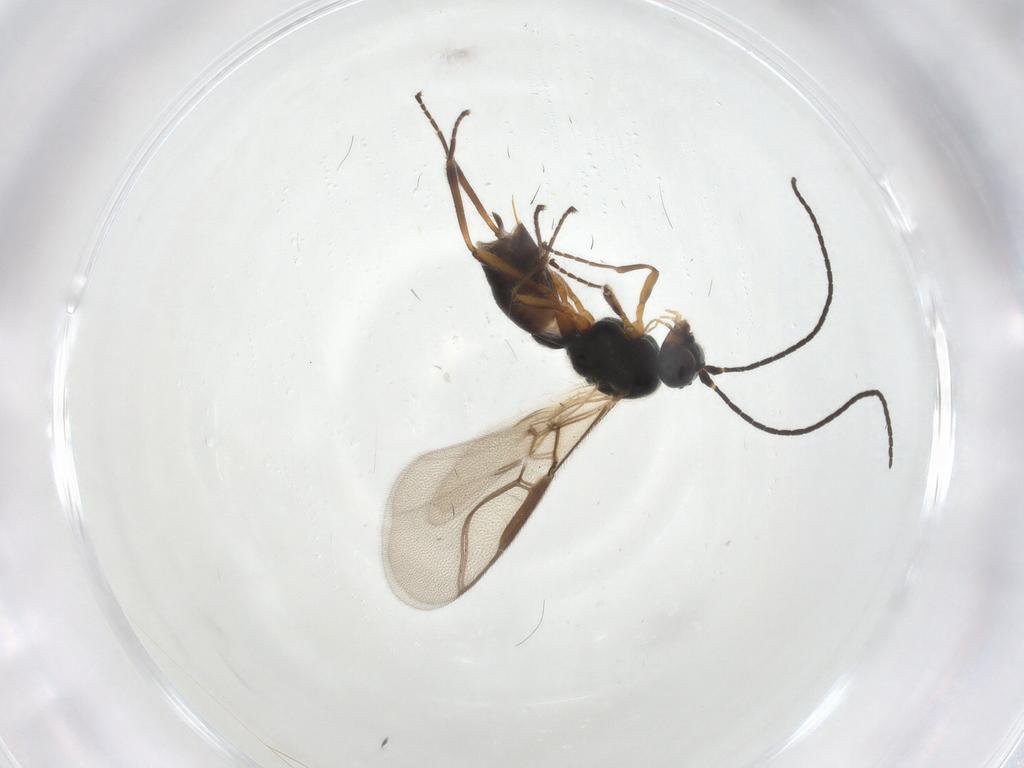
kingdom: Animalia
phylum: Arthropoda
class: Insecta
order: Hymenoptera
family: Braconidae
